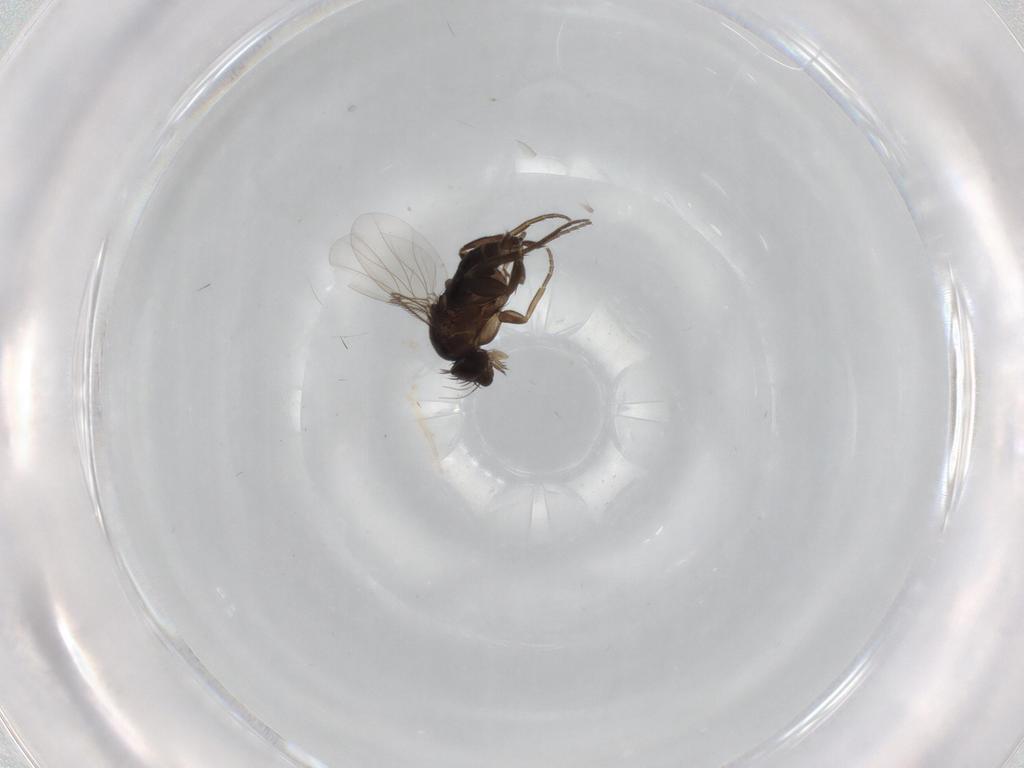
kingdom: Animalia
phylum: Arthropoda
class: Insecta
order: Diptera
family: Phoridae
